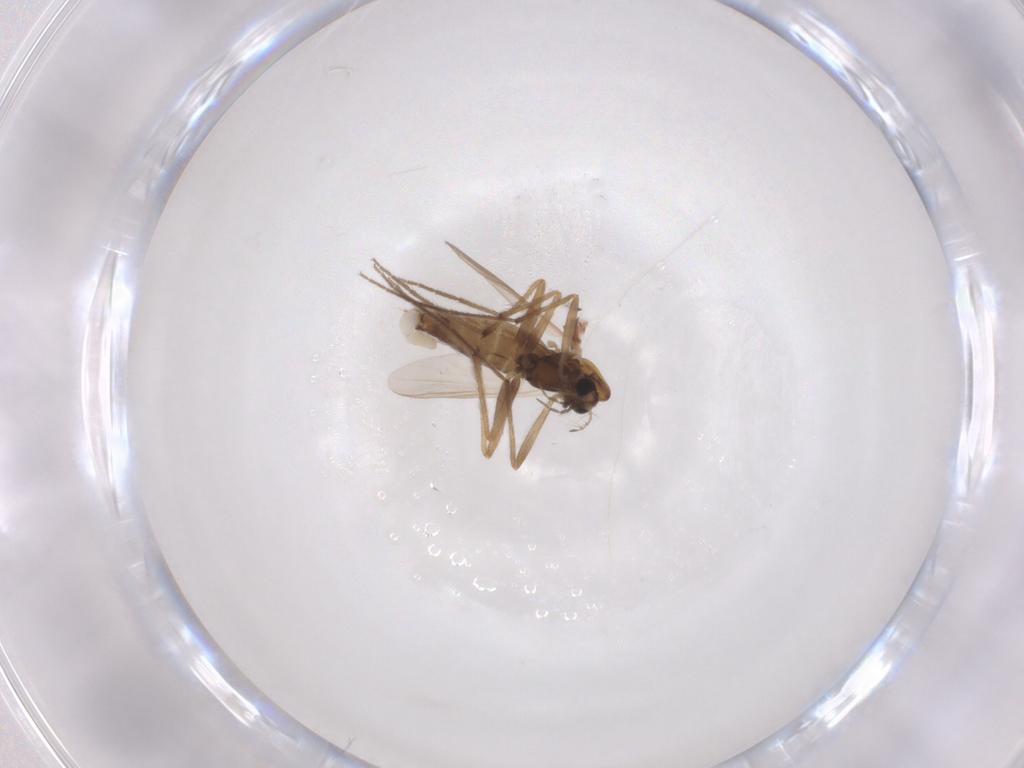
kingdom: Animalia
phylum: Arthropoda
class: Insecta
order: Diptera
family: Chironomidae
